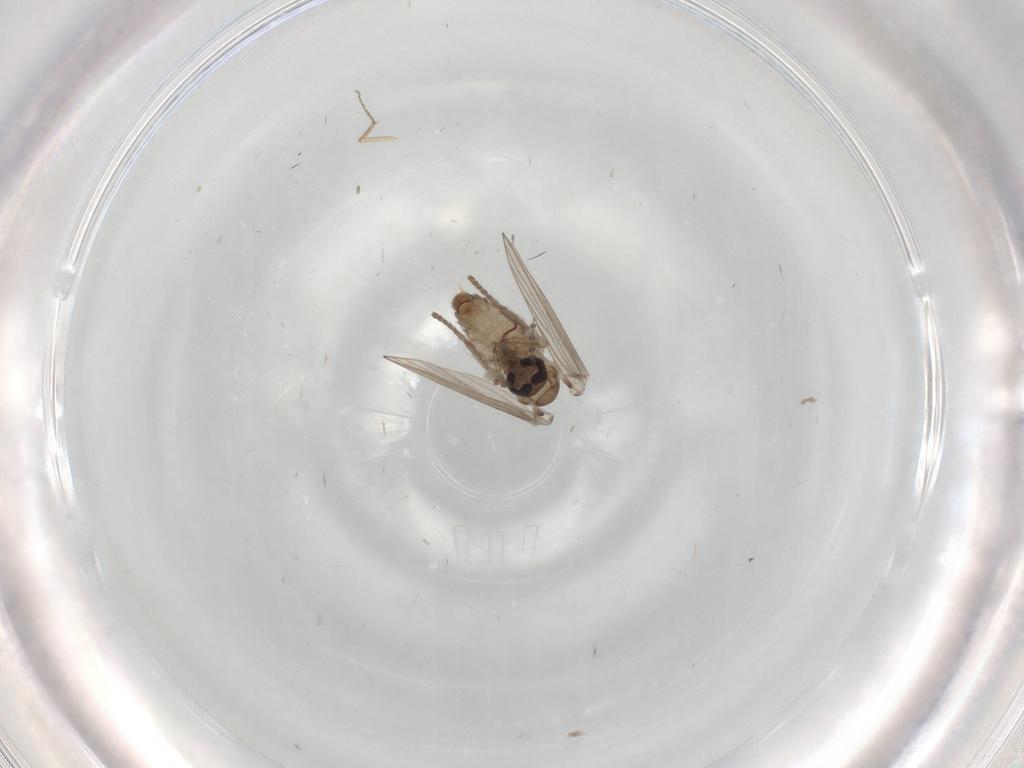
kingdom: Animalia
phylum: Arthropoda
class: Insecta
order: Diptera
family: Psychodidae
